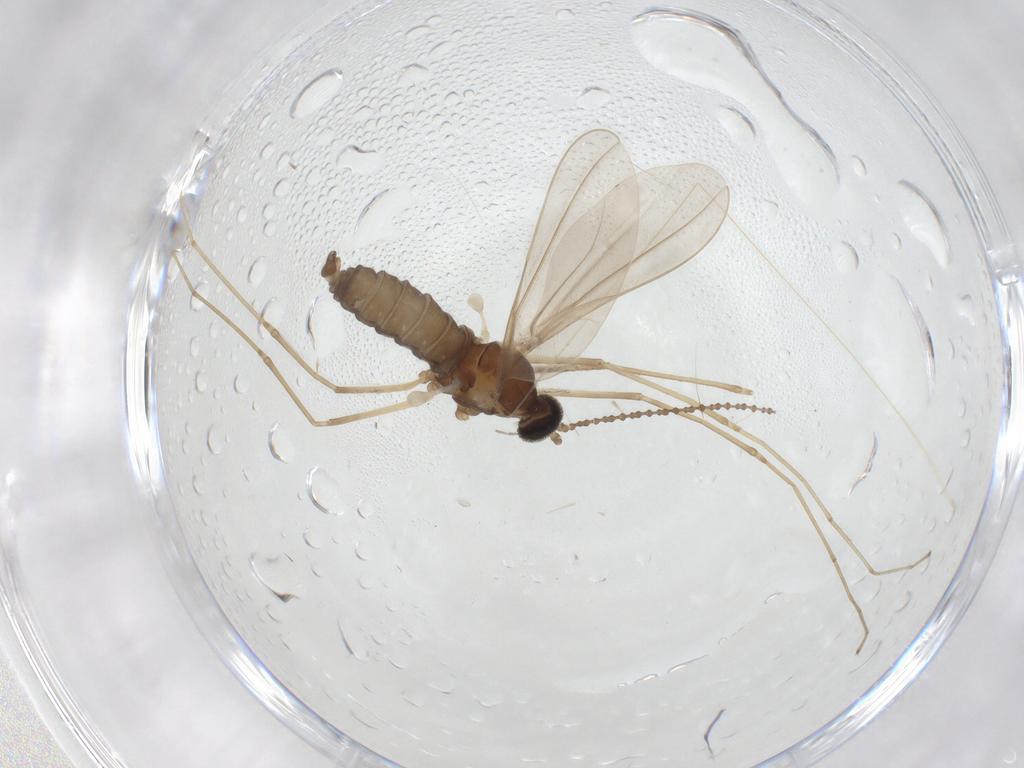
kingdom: Animalia
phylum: Arthropoda
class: Insecta
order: Diptera
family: Cecidomyiidae
